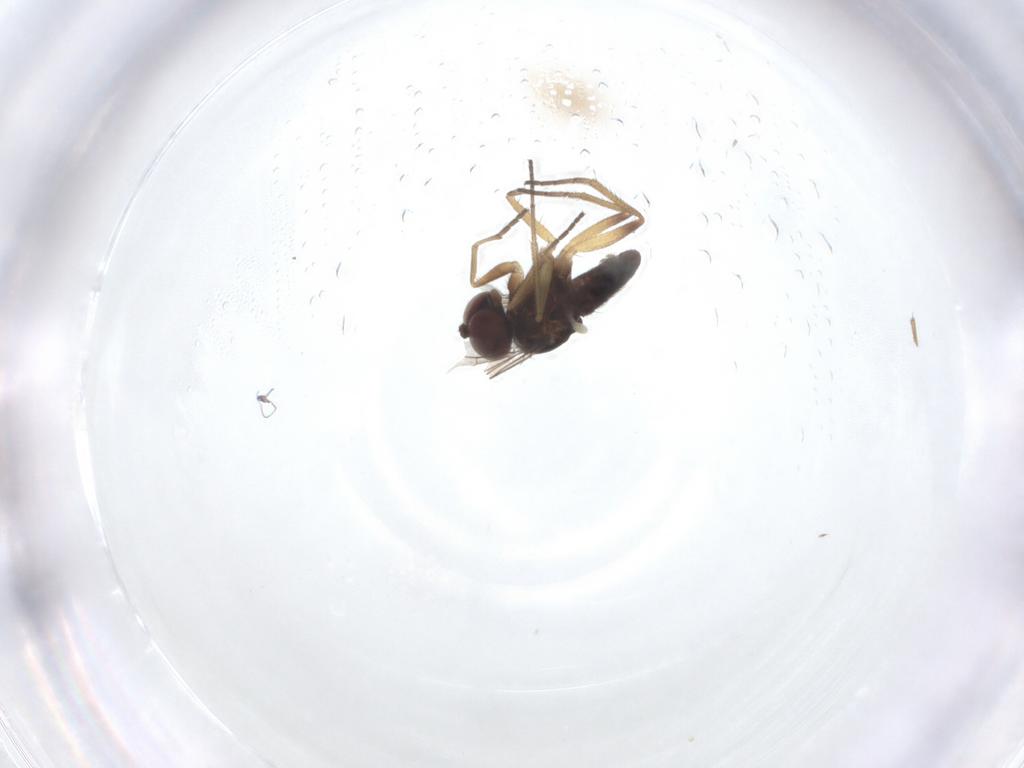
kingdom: Animalia
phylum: Arthropoda
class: Insecta
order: Diptera
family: Dolichopodidae
